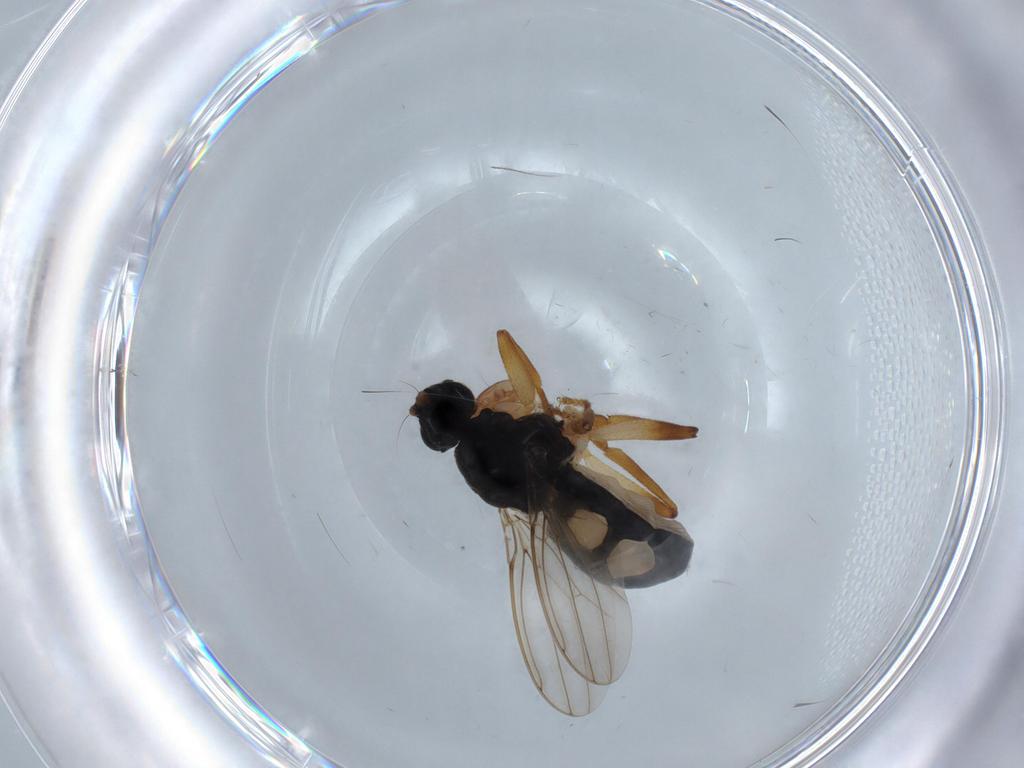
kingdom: Animalia
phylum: Arthropoda
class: Insecta
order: Diptera
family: Sphaeroceridae
